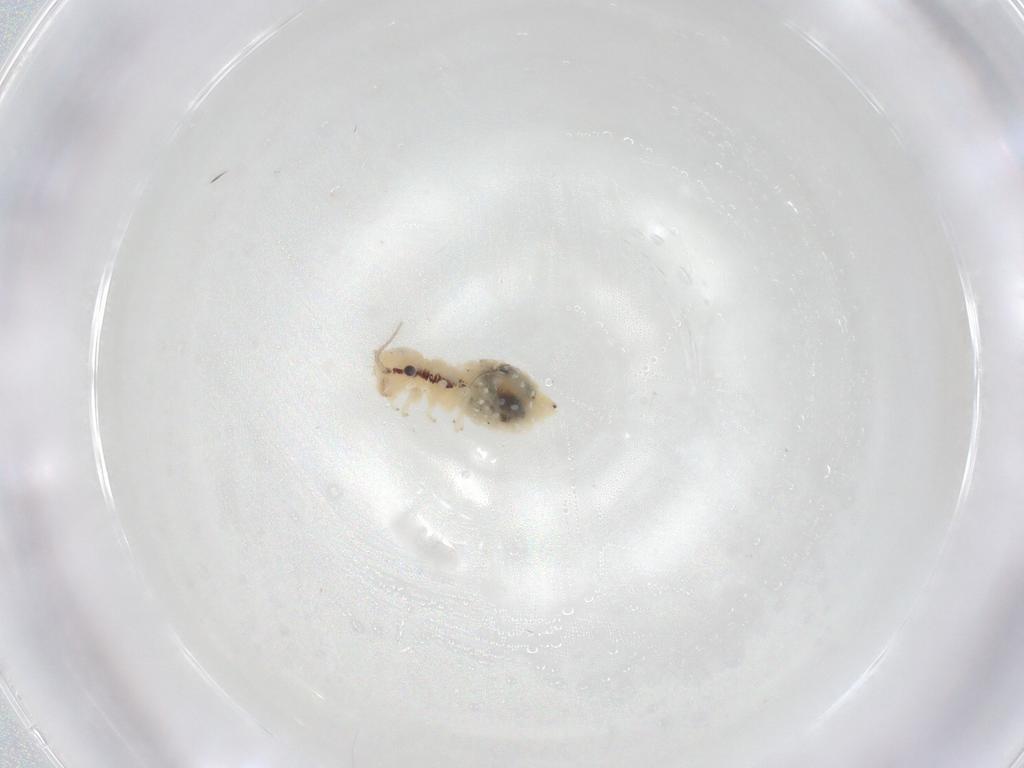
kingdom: Animalia
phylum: Arthropoda
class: Insecta
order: Psocodea
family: Philotarsidae
